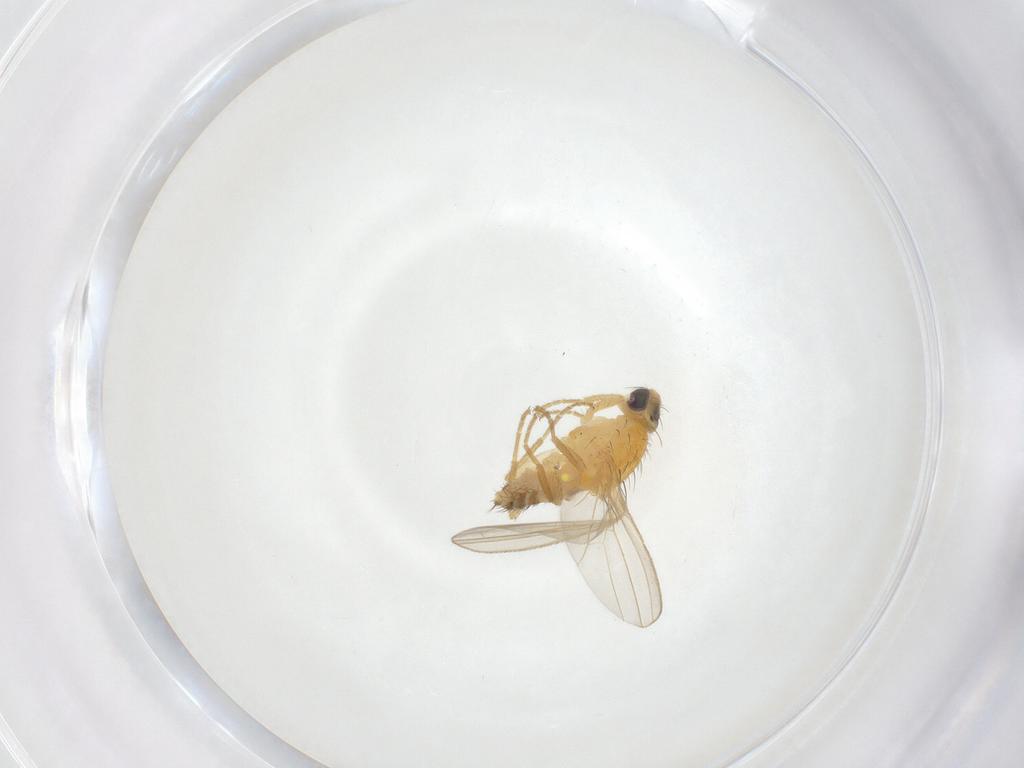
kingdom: Animalia
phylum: Arthropoda
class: Insecta
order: Diptera
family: Chyromyidae
